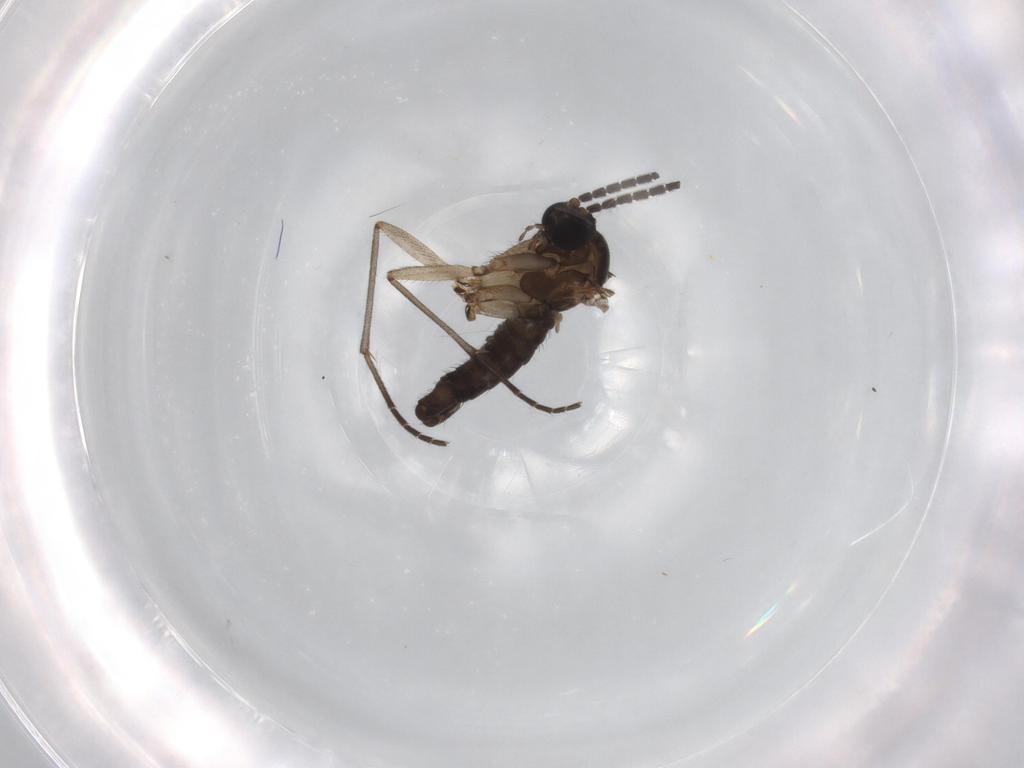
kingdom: Animalia
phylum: Arthropoda
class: Insecta
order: Diptera
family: Sciaridae
